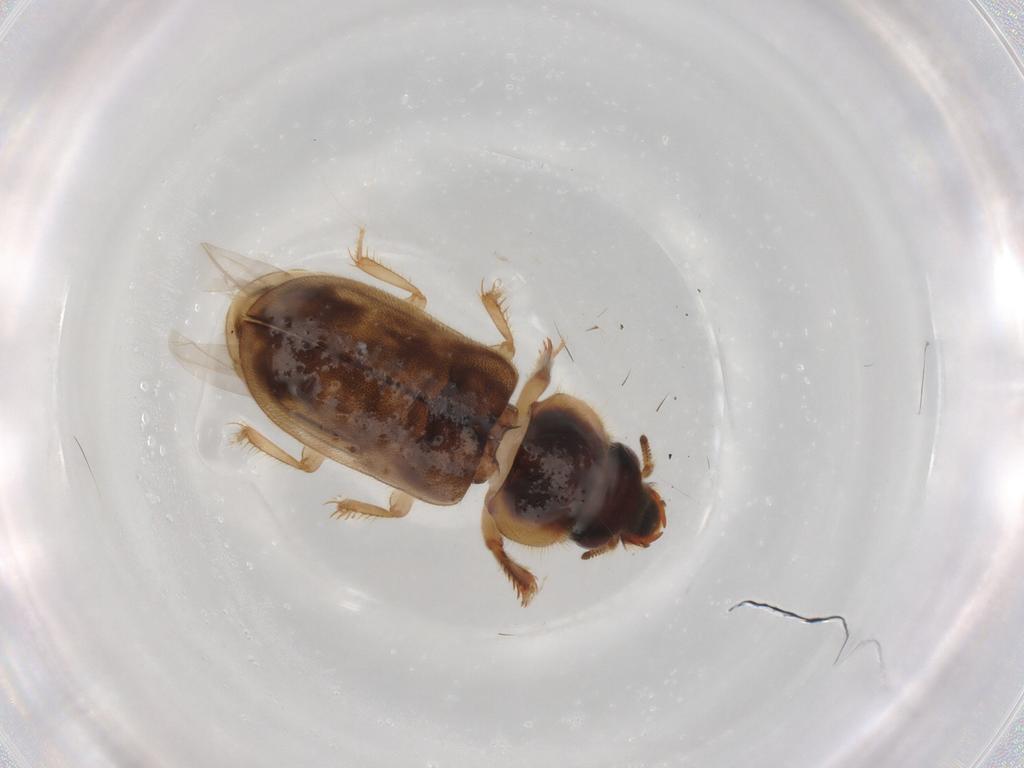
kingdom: Animalia
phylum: Arthropoda
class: Insecta
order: Coleoptera
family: Heteroceridae
